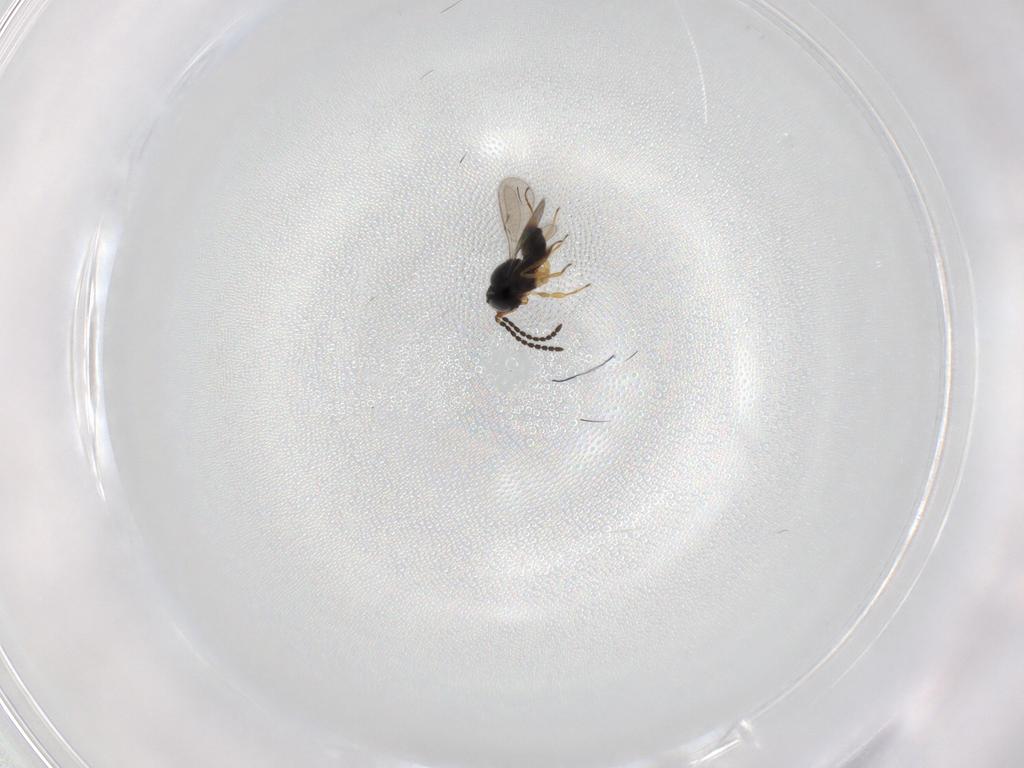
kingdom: Animalia
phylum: Arthropoda
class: Insecta
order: Hymenoptera
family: Scelionidae
